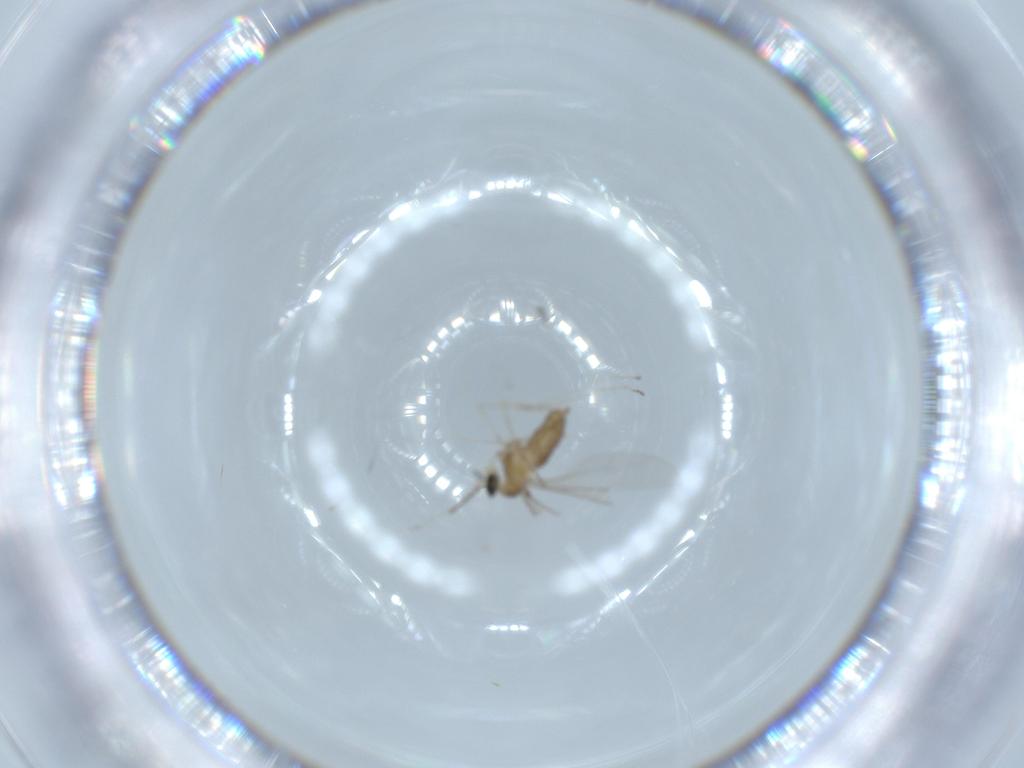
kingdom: Animalia
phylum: Arthropoda
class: Insecta
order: Diptera
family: Cecidomyiidae
